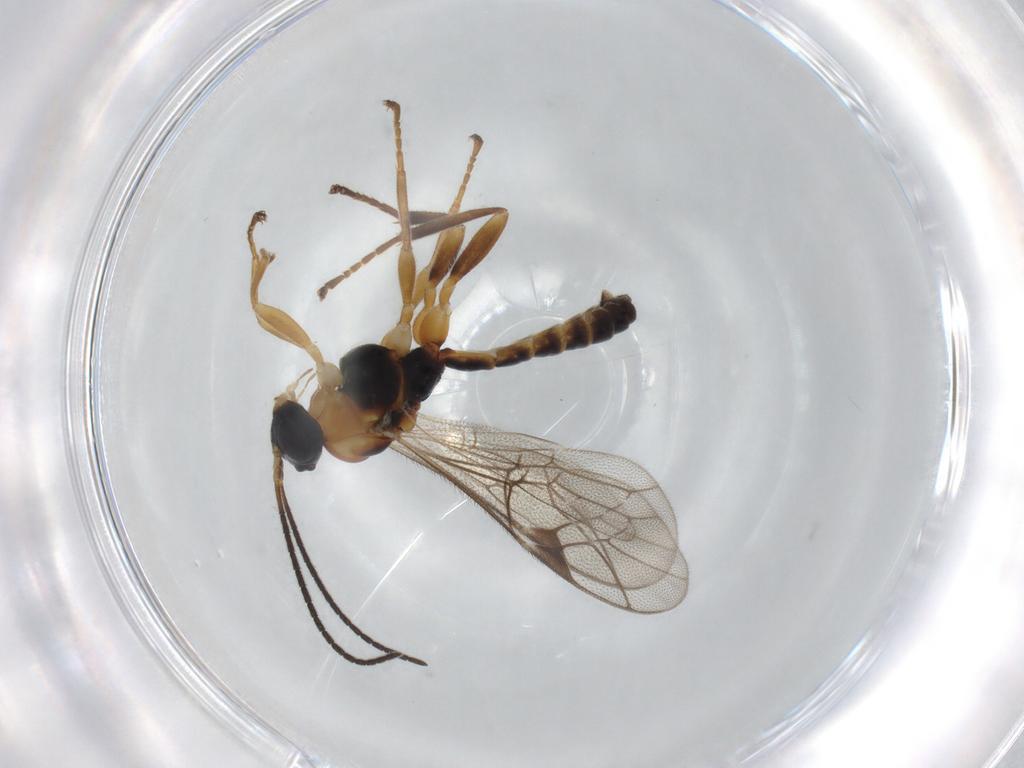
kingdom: Animalia
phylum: Arthropoda
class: Insecta
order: Hymenoptera
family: Ichneumonidae
